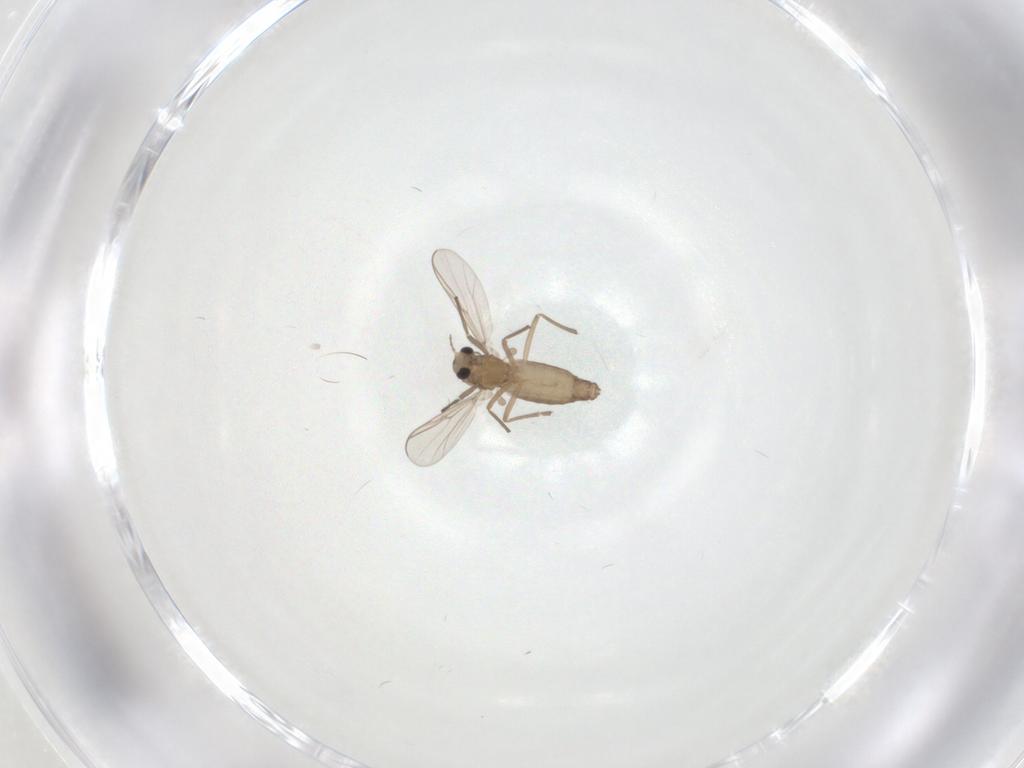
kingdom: Animalia
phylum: Arthropoda
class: Insecta
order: Diptera
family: Chironomidae
